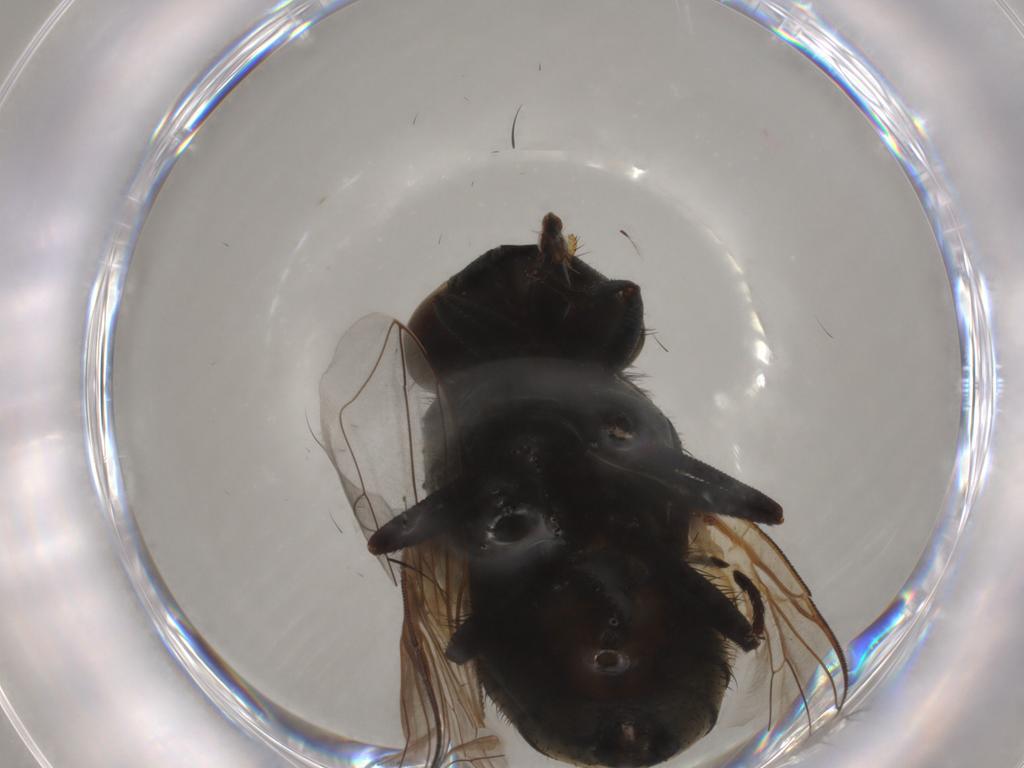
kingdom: Animalia
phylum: Arthropoda
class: Insecta
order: Diptera
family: Muscidae
